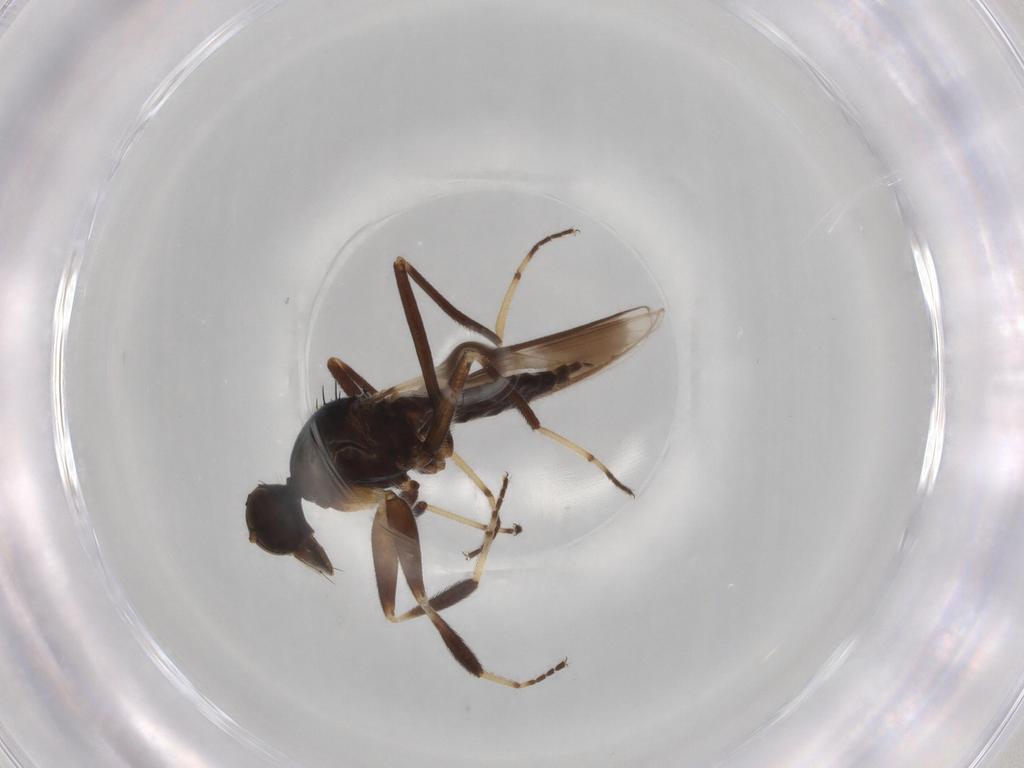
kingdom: Animalia
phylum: Arthropoda
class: Insecta
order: Diptera
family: Hybotidae
